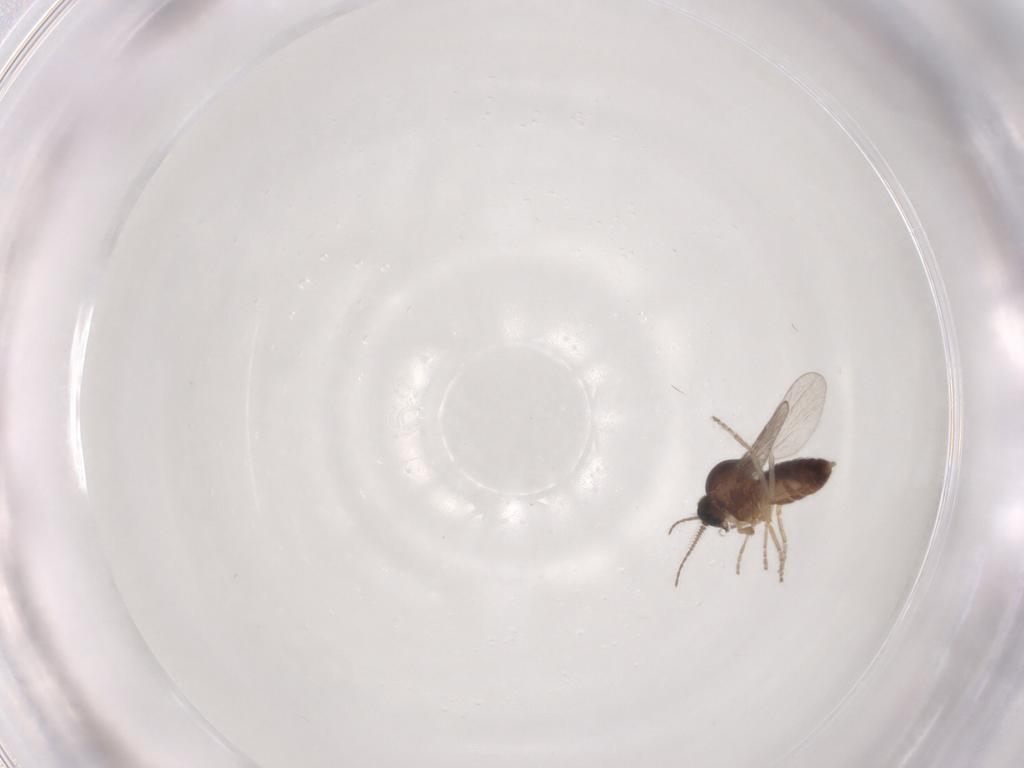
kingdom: Animalia
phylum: Arthropoda
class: Insecta
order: Diptera
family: Ceratopogonidae
